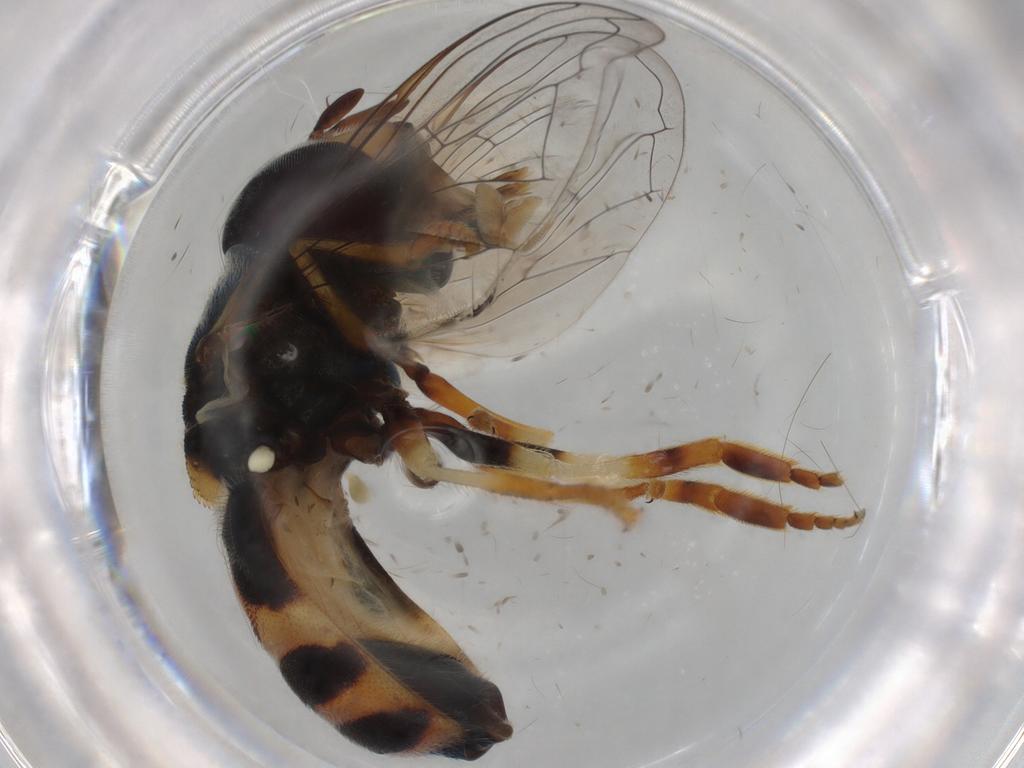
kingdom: Animalia
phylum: Arthropoda
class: Insecta
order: Diptera
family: Syrphidae
